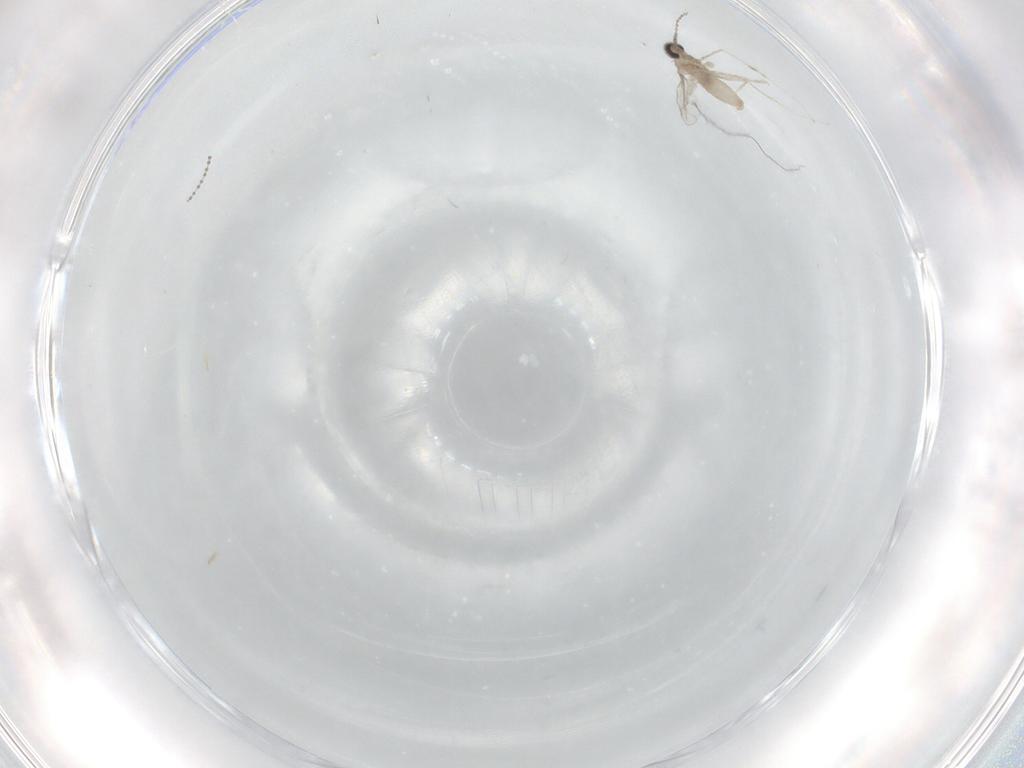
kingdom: Animalia
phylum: Arthropoda
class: Insecta
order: Diptera
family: Cecidomyiidae
